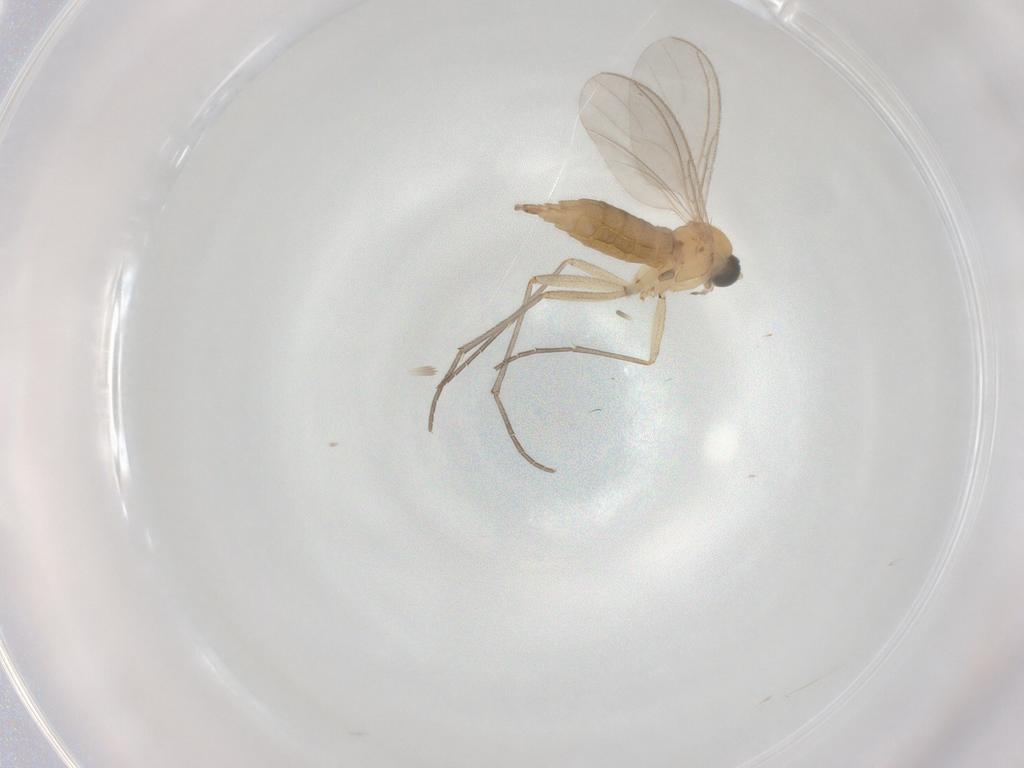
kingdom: Animalia
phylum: Arthropoda
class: Insecta
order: Diptera
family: Sciaridae
